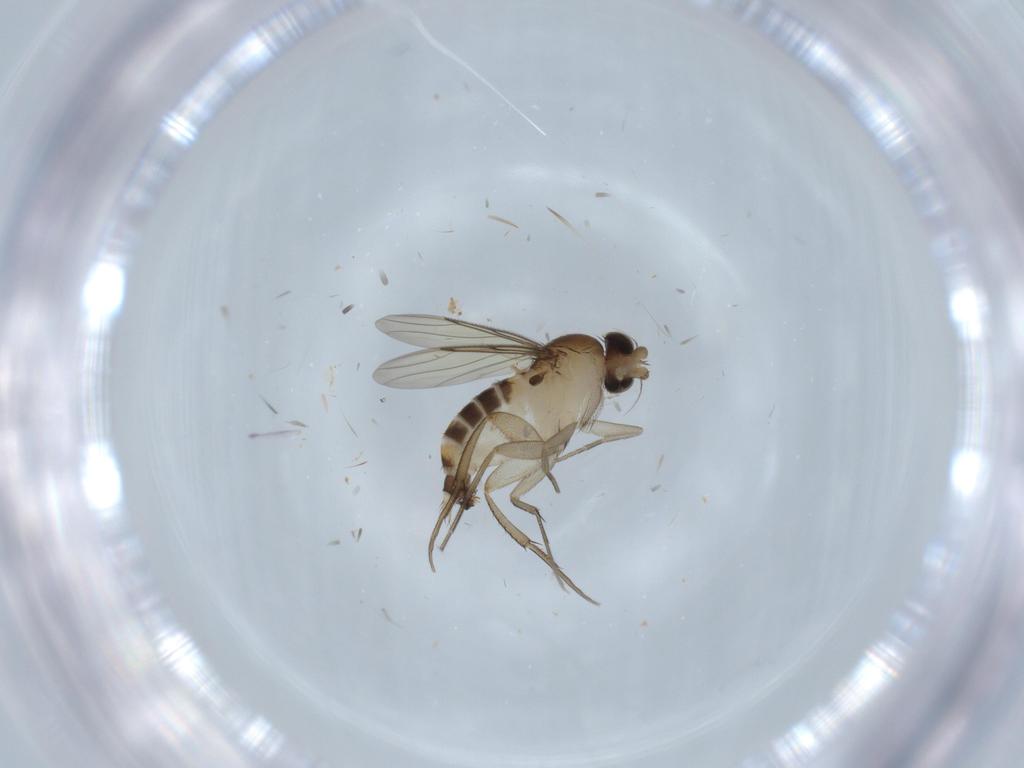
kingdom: Animalia
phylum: Arthropoda
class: Insecta
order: Diptera
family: Phoridae
